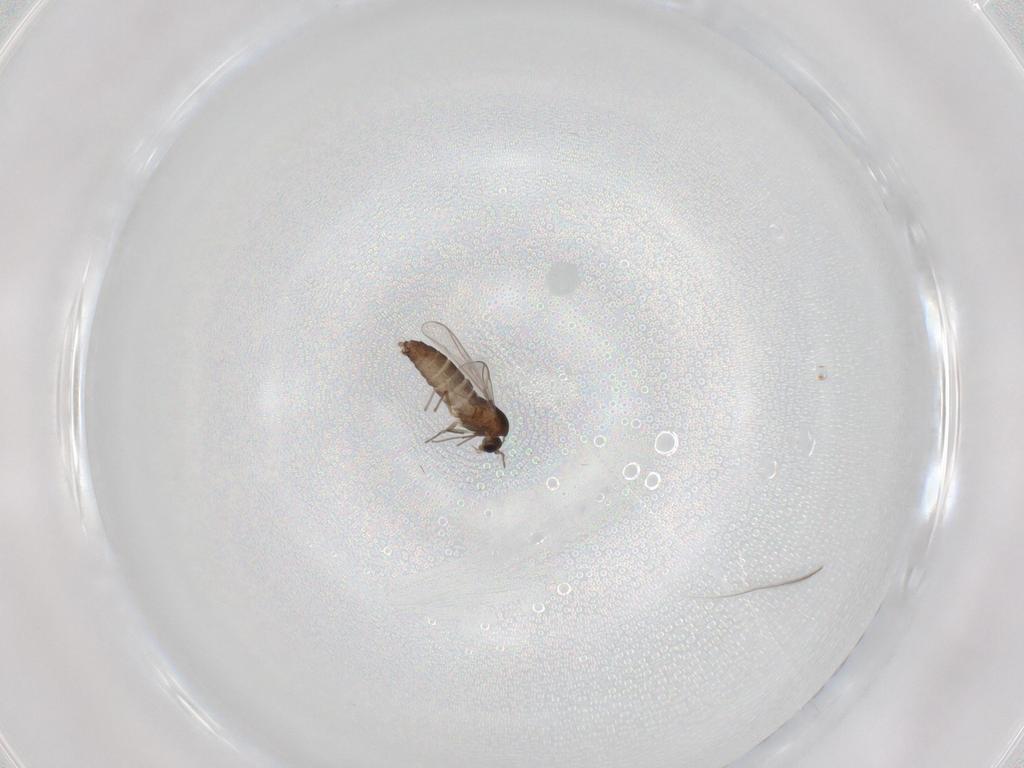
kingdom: Animalia
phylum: Arthropoda
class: Insecta
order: Diptera
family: Chironomidae
